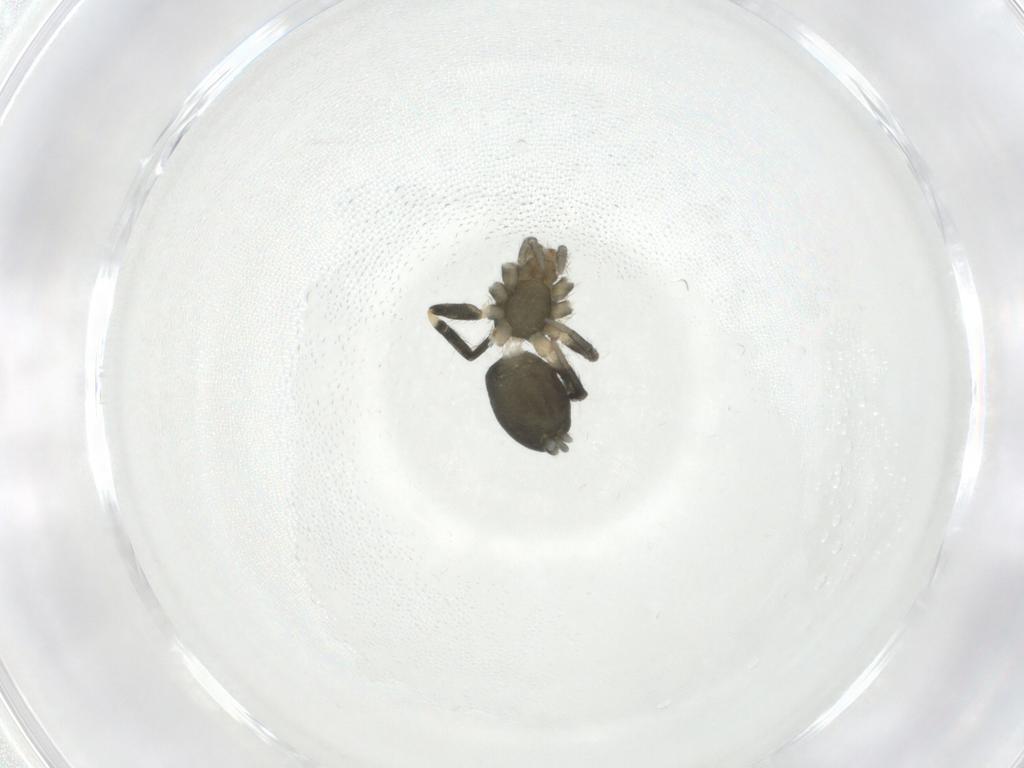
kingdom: Animalia
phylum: Arthropoda
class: Arachnida
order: Araneae
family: Gnaphosidae
